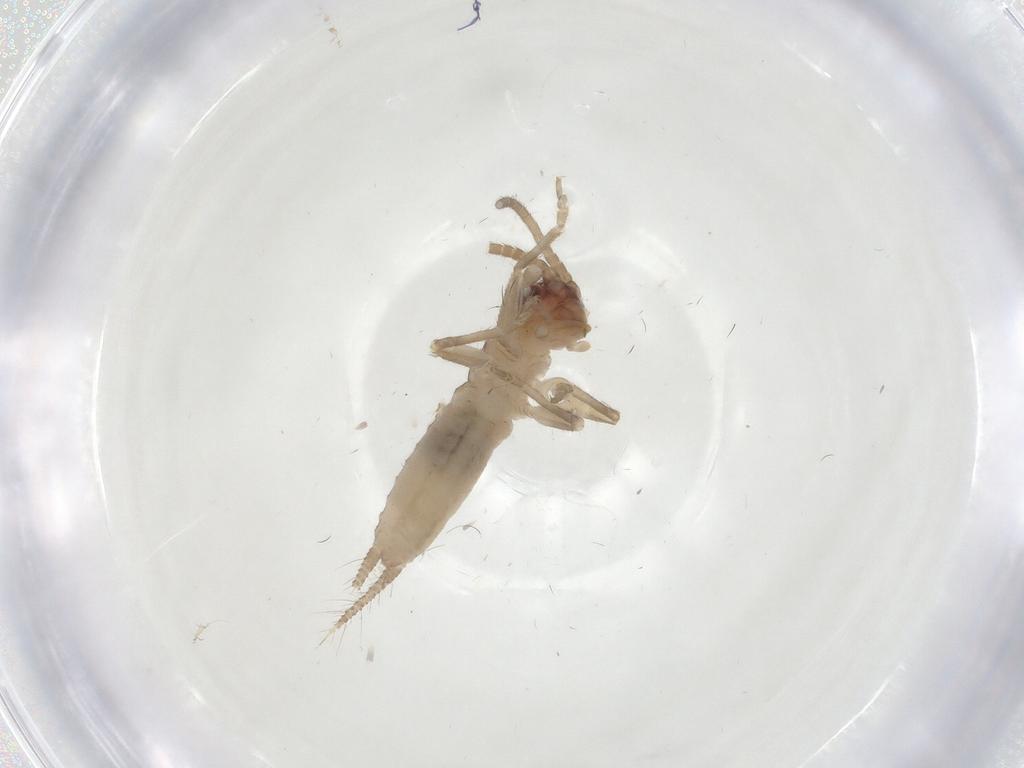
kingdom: Animalia
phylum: Arthropoda
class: Insecta
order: Orthoptera
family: Gryllidae
